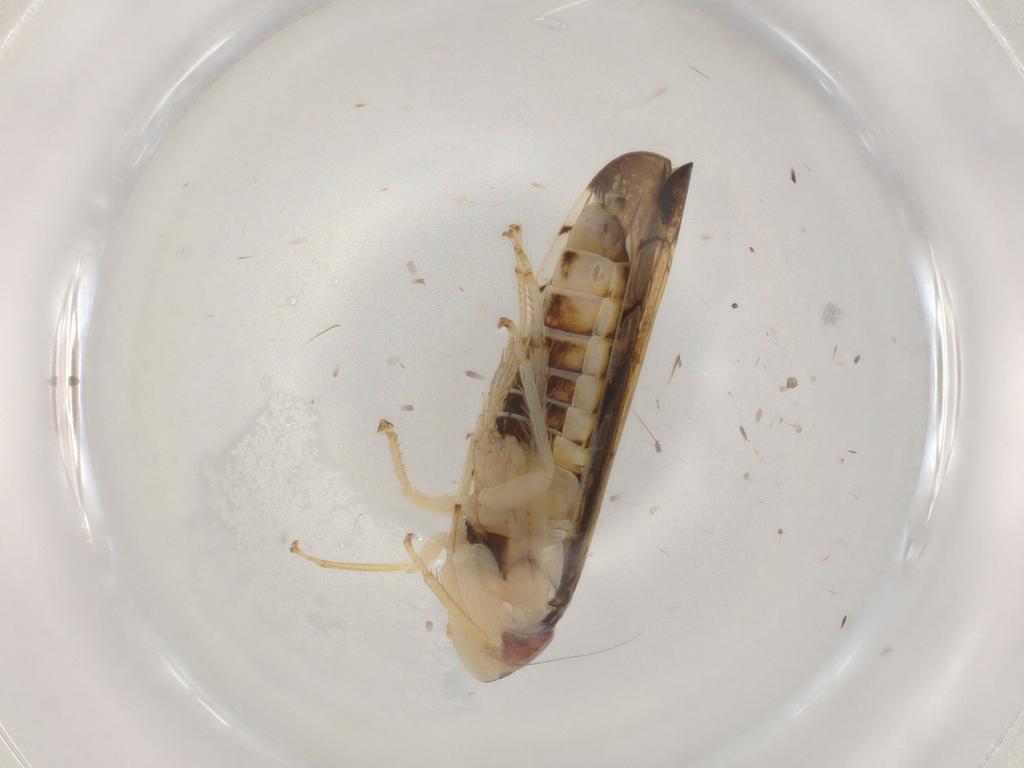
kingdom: Animalia
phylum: Arthropoda
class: Insecta
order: Hemiptera
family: Cicadellidae
